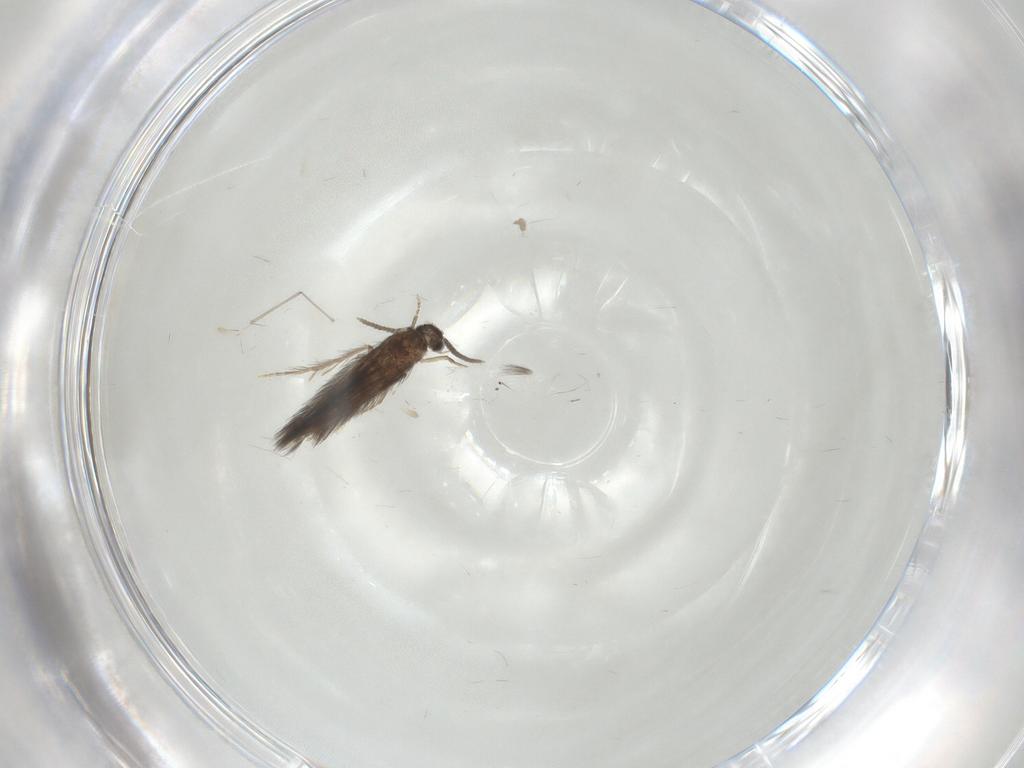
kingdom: Animalia
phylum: Arthropoda
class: Insecta
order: Trichoptera
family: Hydroptilidae
